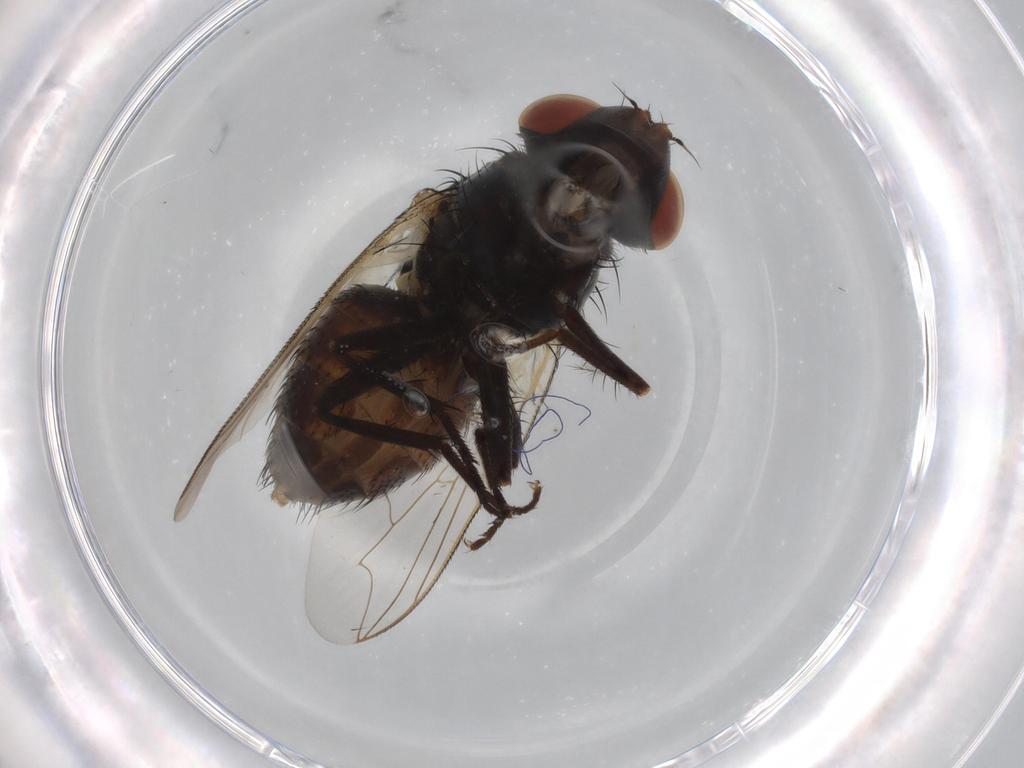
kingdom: Animalia
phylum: Arthropoda
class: Insecta
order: Diptera
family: Sarcophagidae
